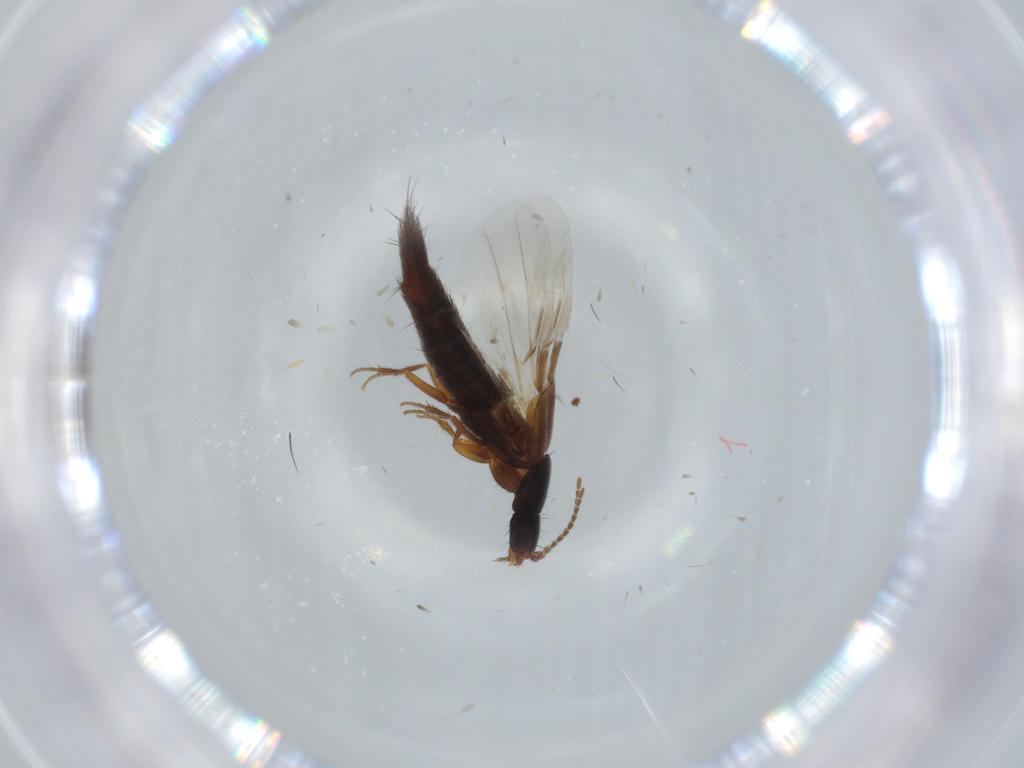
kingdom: Animalia
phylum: Arthropoda
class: Insecta
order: Coleoptera
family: Staphylinidae
